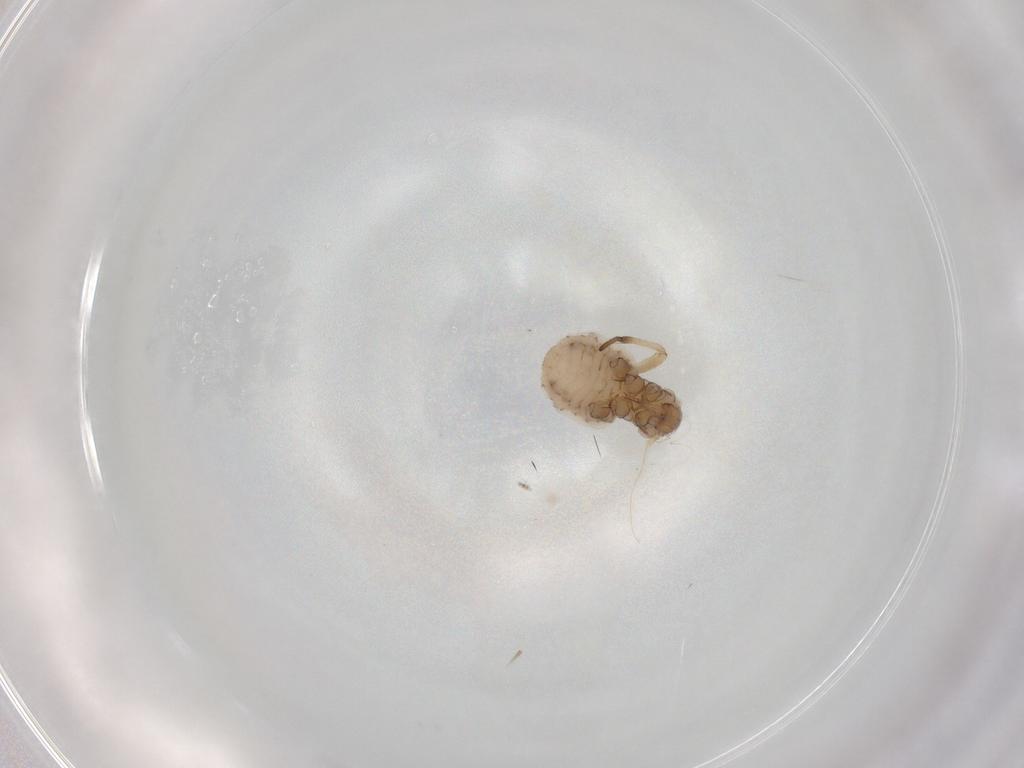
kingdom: Animalia
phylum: Arthropoda
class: Insecta
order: Hemiptera
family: Aphididae
